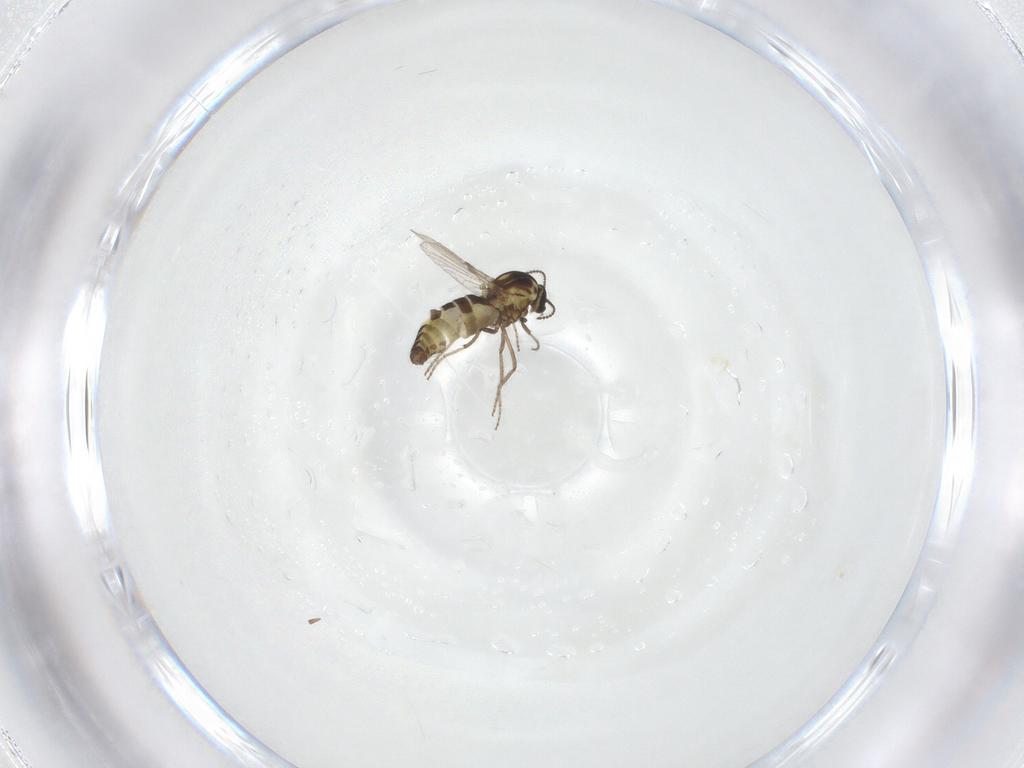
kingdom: Animalia
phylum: Arthropoda
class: Insecta
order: Diptera
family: Ceratopogonidae
